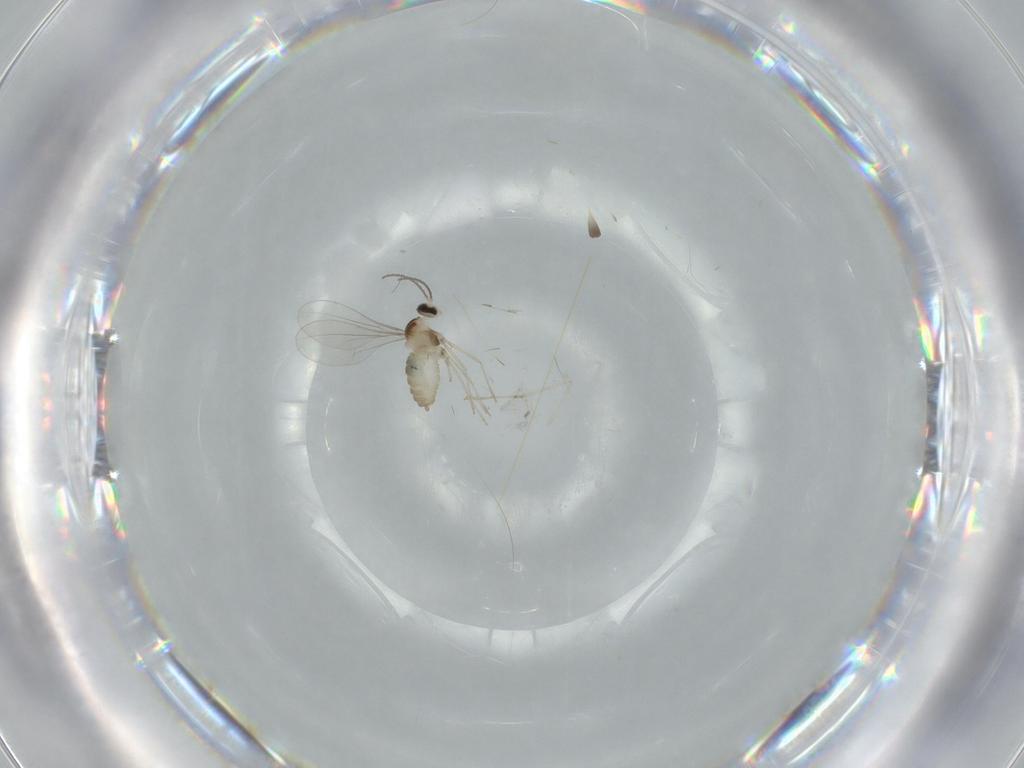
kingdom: Animalia
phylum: Arthropoda
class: Insecta
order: Diptera
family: Cecidomyiidae
